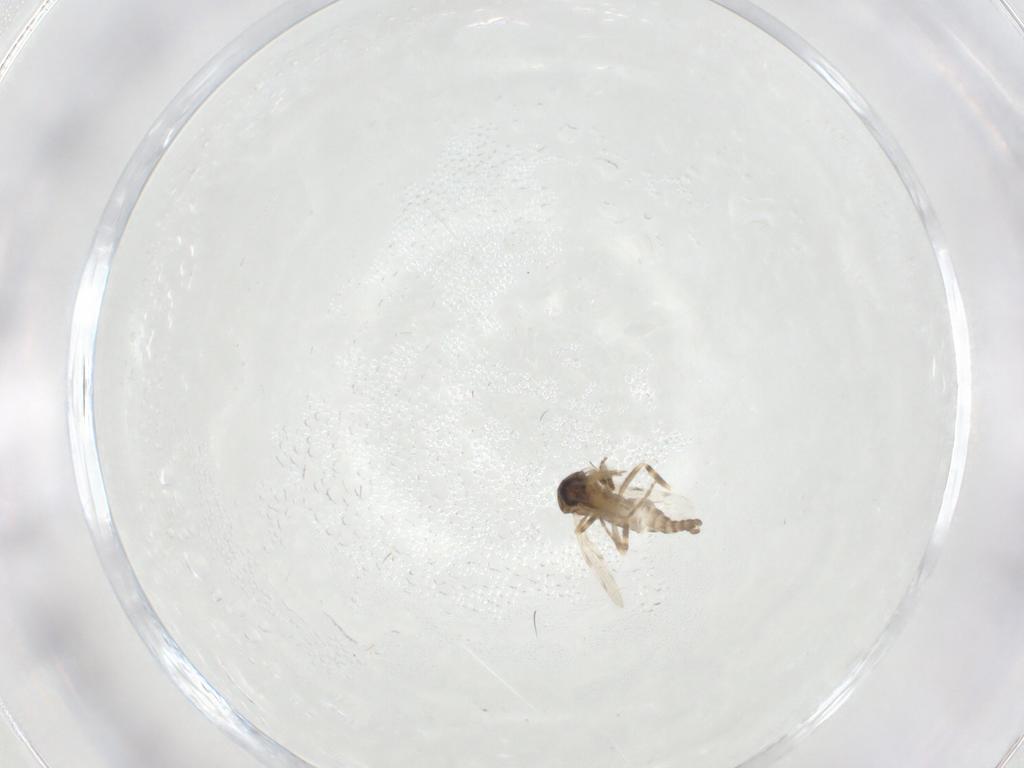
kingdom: Animalia
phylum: Arthropoda
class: Insecta
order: Diptera
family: Ceratopogonidae
